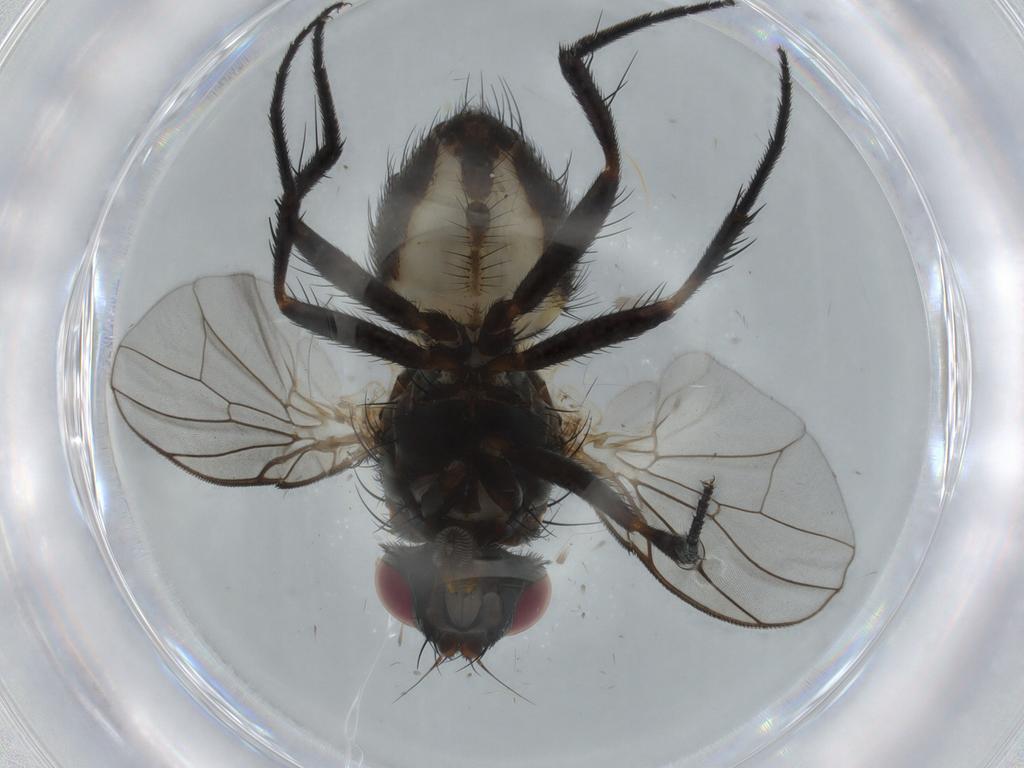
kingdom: Animalia
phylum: Arthropoda
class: Insecta
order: Diptera
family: Fannia
